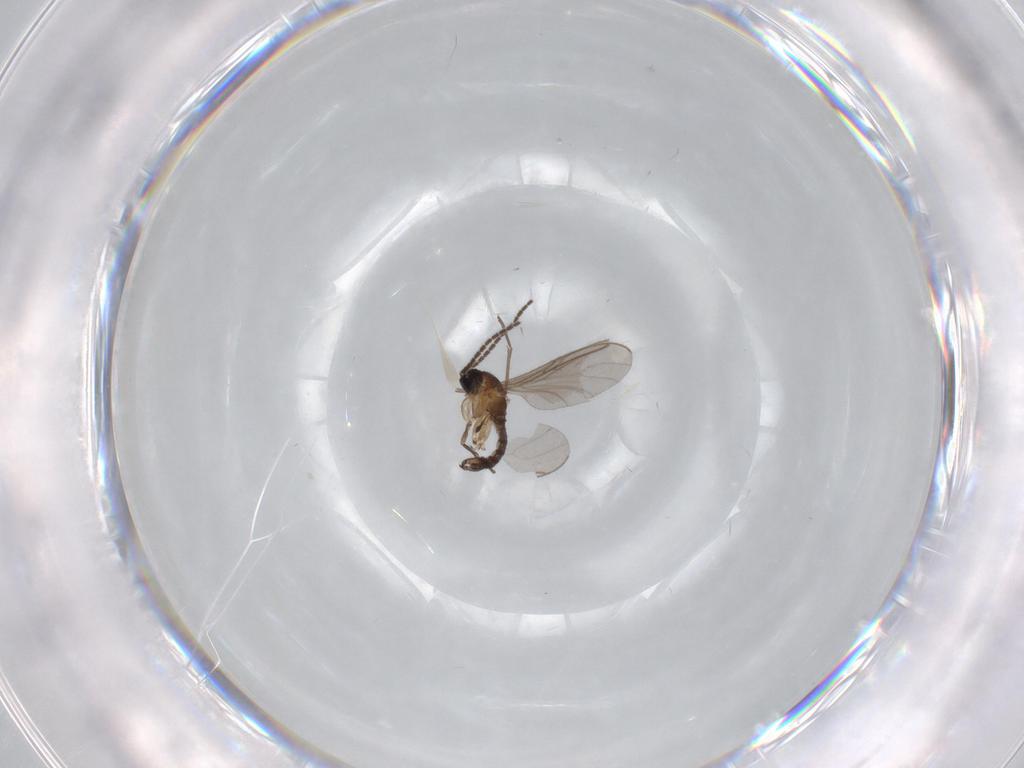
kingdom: Animalia
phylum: Arthropoda
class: Insecta
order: Diptera
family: Sciaridae
